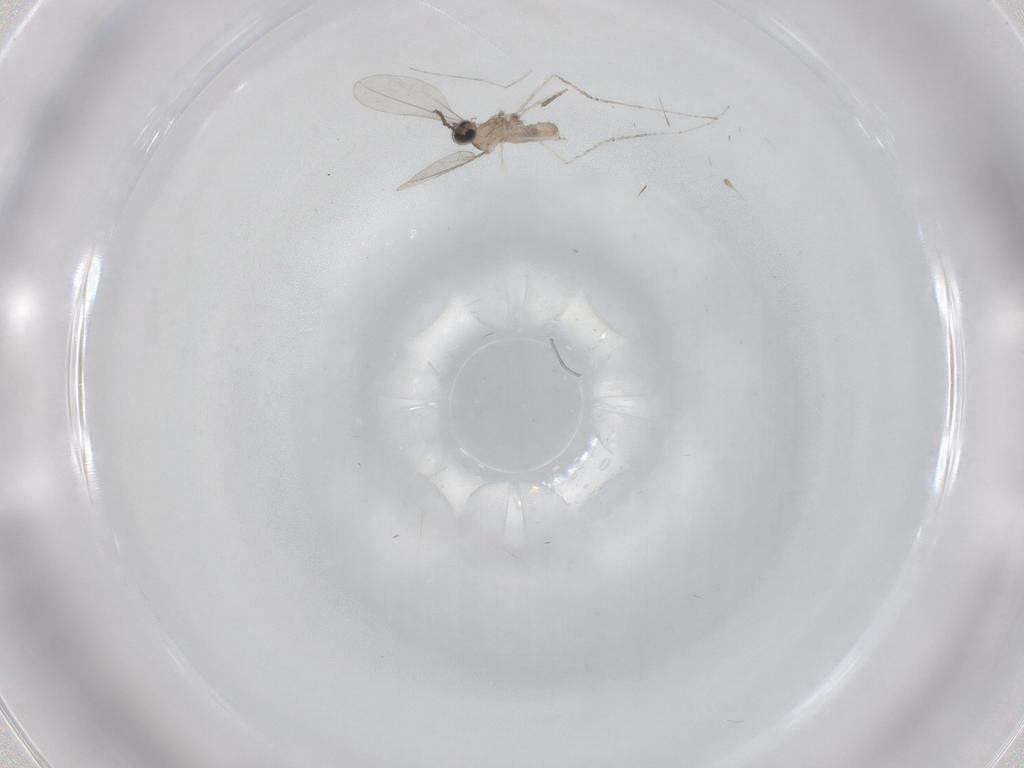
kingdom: Animalia
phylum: Arthropoda
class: Insecta
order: Diptera
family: Cecidomyiidae
